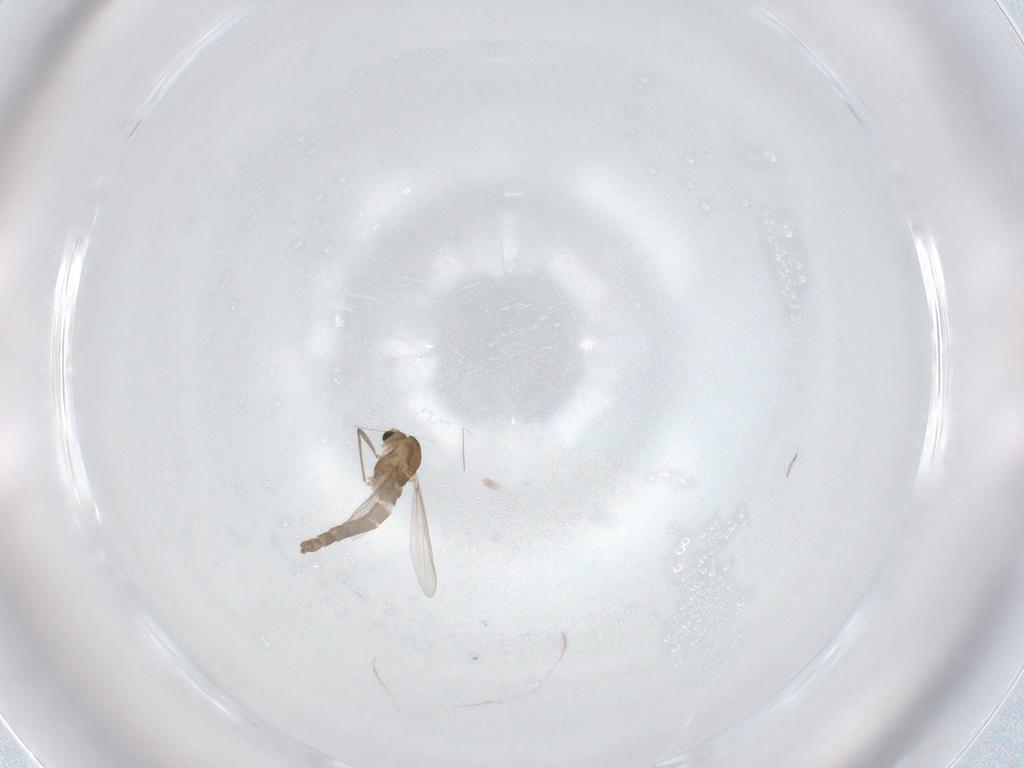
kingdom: Animalia
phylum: Arthropoda
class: Insecta
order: Diptera
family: Chironomidae
